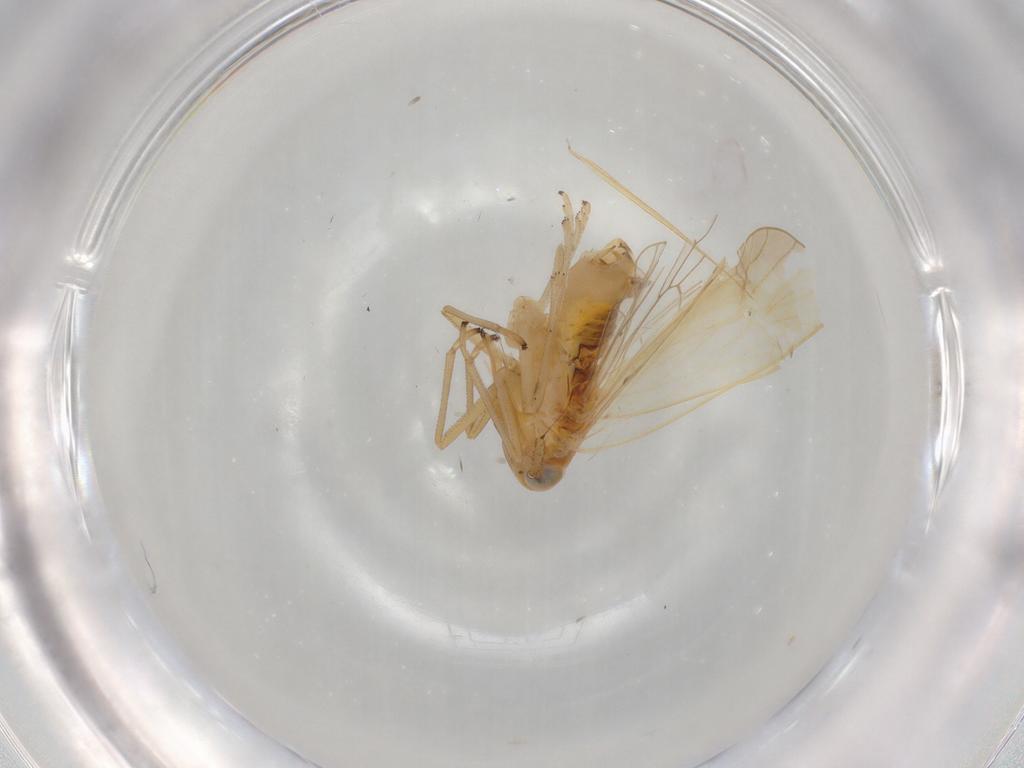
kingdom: Animalia
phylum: Arthropoda
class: Insecta
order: Hemiptera
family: Delphacidae
